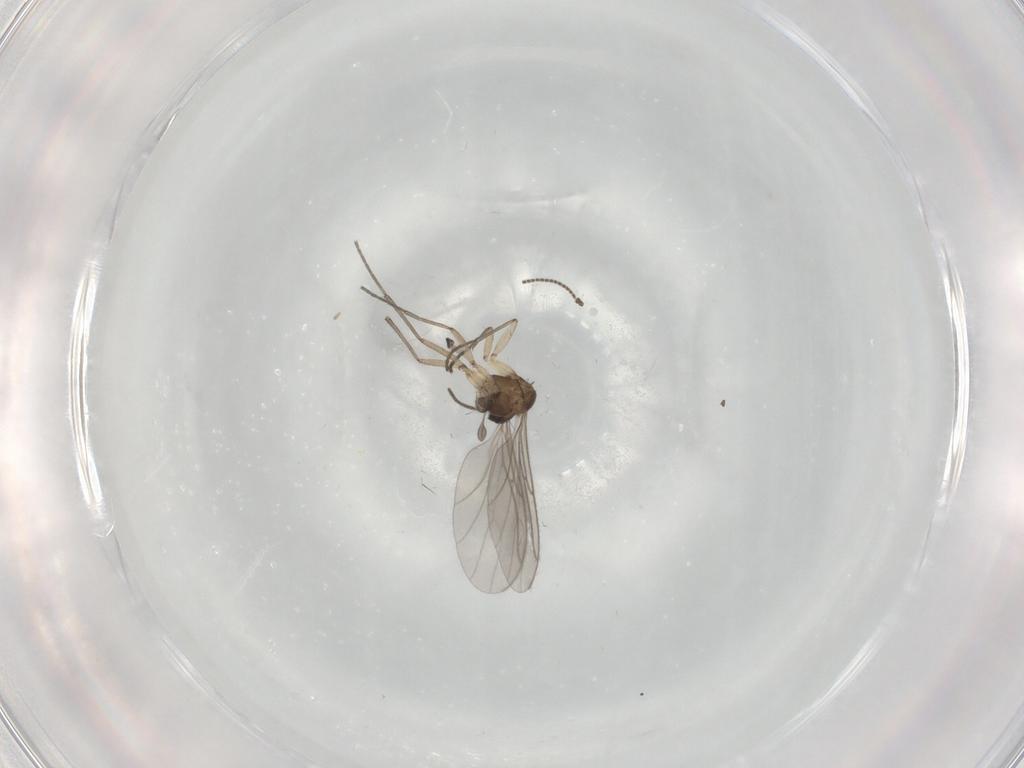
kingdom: Animalia
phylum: Arthropoda
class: Insecta
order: Diptera
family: Sciaridae
